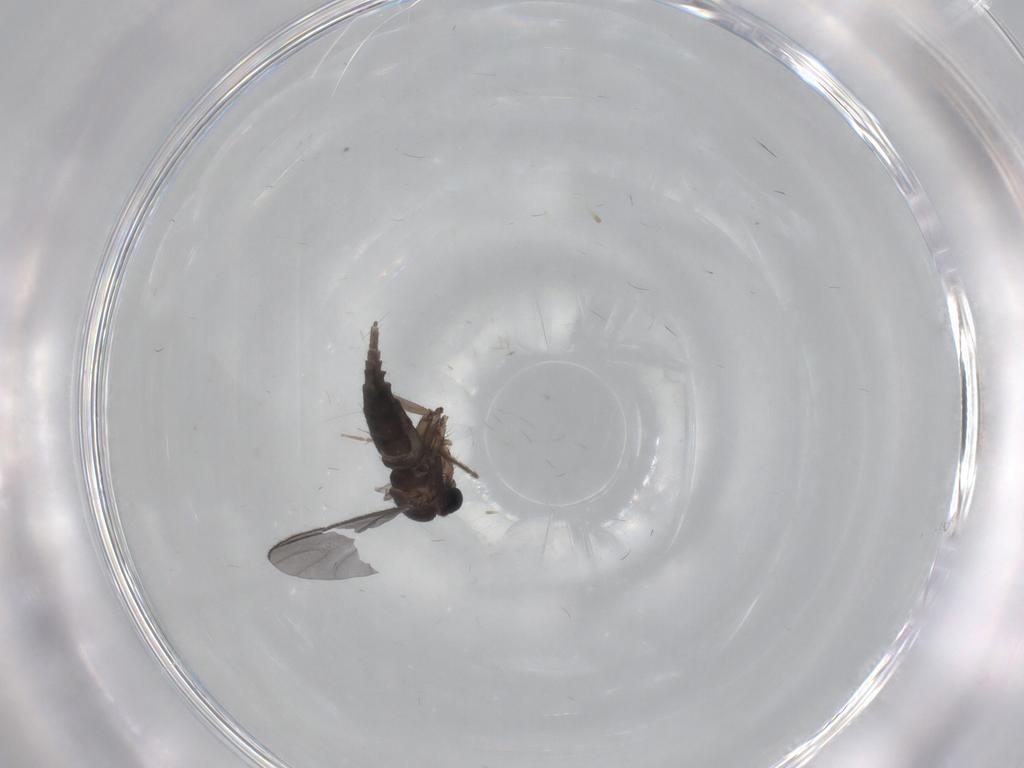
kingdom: Animalia
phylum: Arthropoda
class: Insecta
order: Diptera
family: Sciaridae
